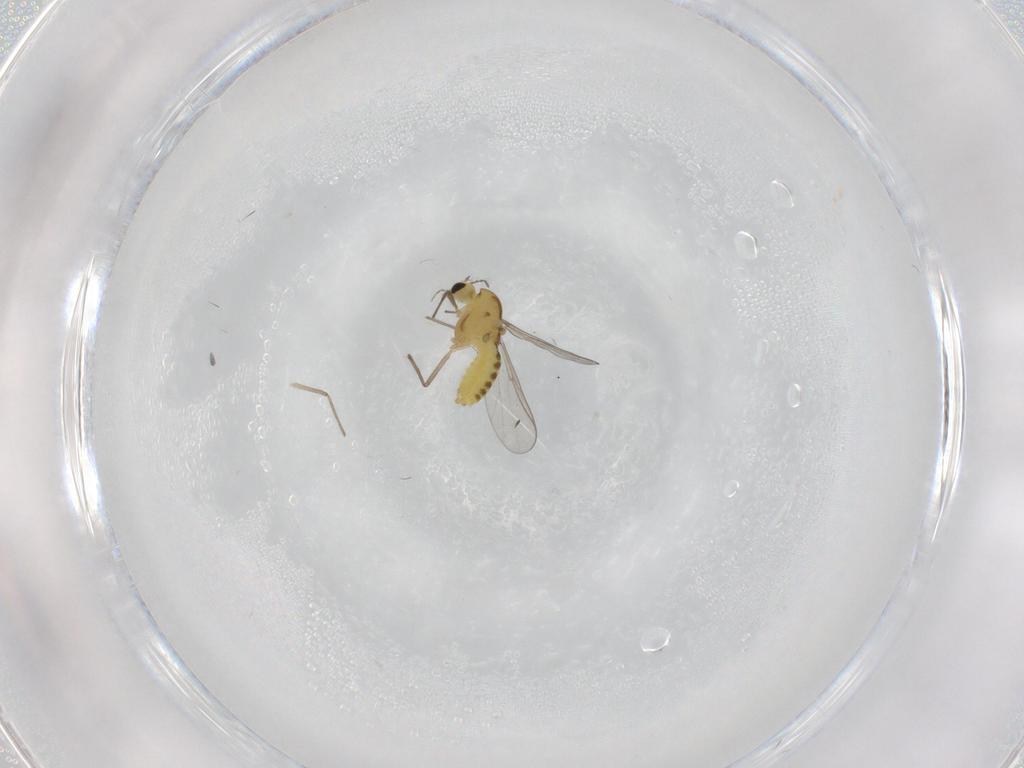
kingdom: Animalia
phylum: Arthropoda
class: Insecta
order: Diptera
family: Chironomidae
